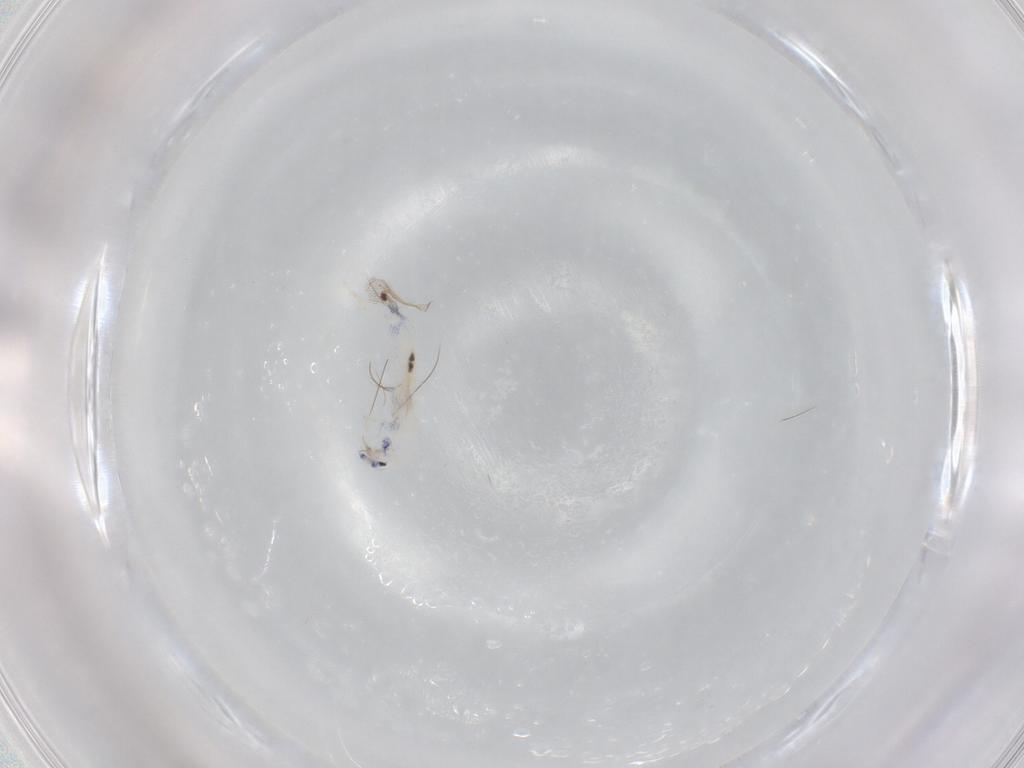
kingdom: Animalia
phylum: Arthropoda
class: Collembola
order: Entomobryomorpha
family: Entomobryidae
